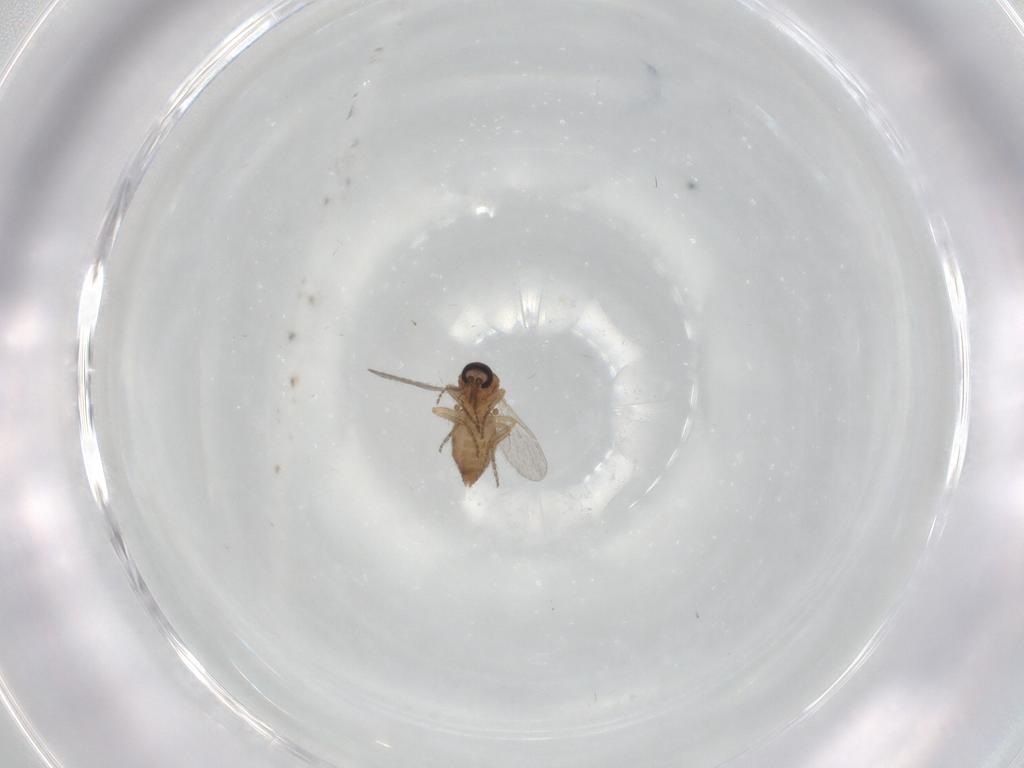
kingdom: Animalia
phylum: Arthropoda
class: Insecta
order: Diptera
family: Ceratopogonidae
